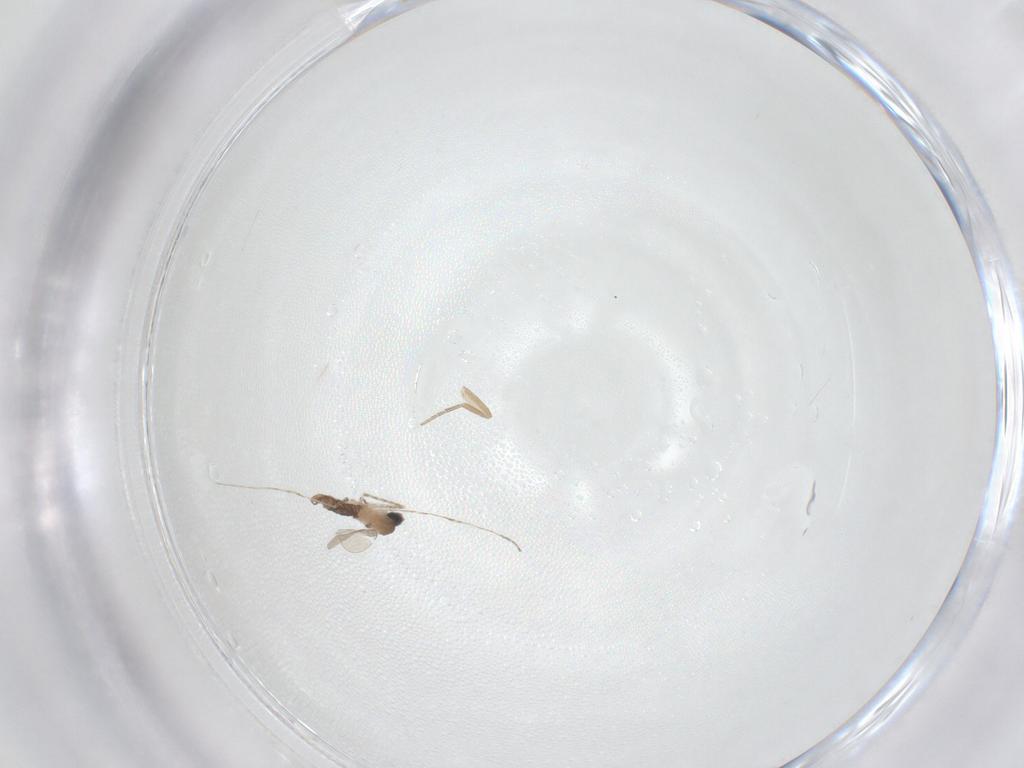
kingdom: Animalia
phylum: Arthropoda
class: Insecta
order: Diptera
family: Phoridae
